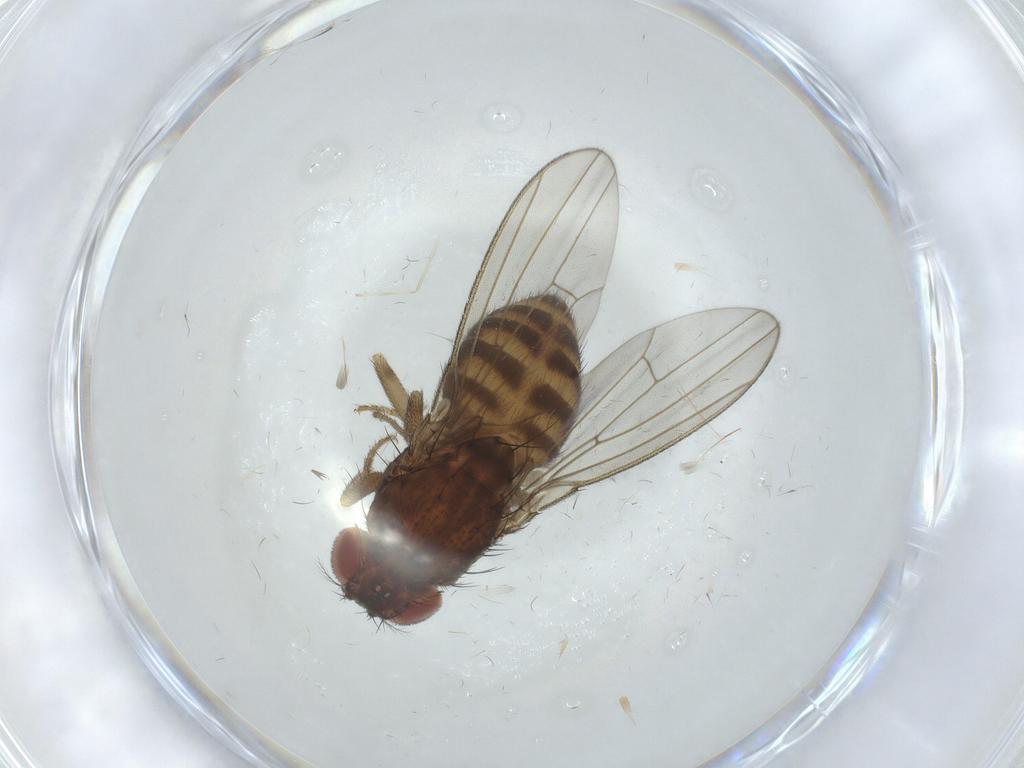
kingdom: Animalia
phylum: Arthropoda
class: Insecta
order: Diptera
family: Drosophilidae
